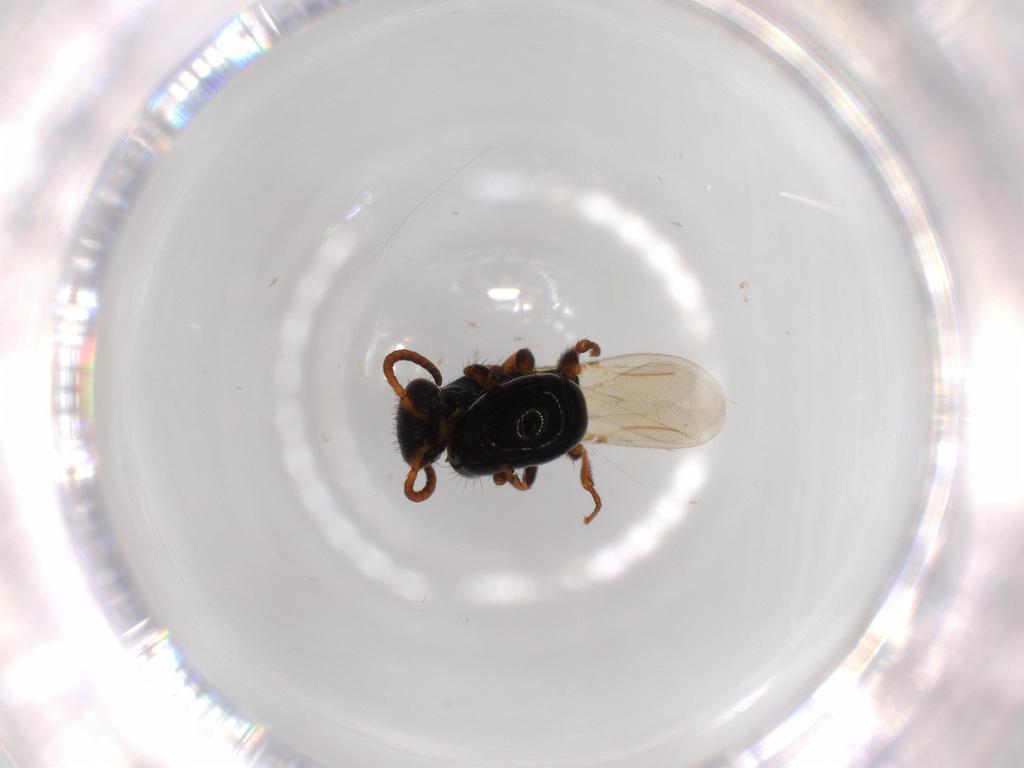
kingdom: Animalia
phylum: Arthropoda
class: Insecta
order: Hymenoptera
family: Bethylidae
